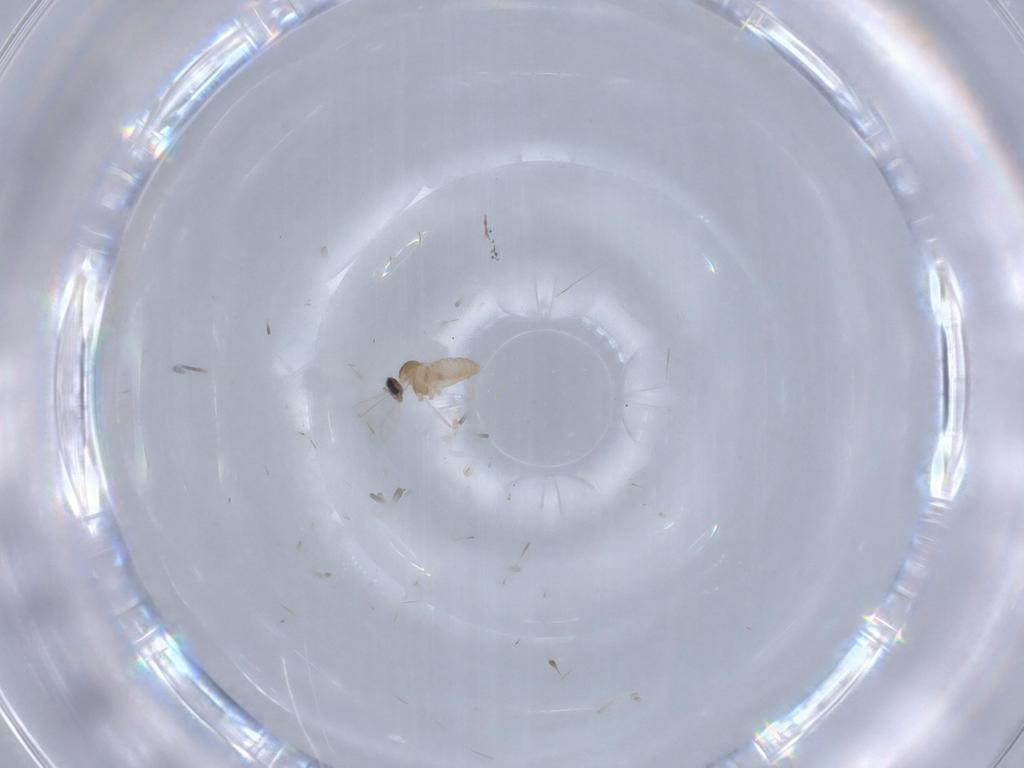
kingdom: Animalia
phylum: Arthropoda
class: Insecta
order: Diptera
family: Cecidomyiidae
